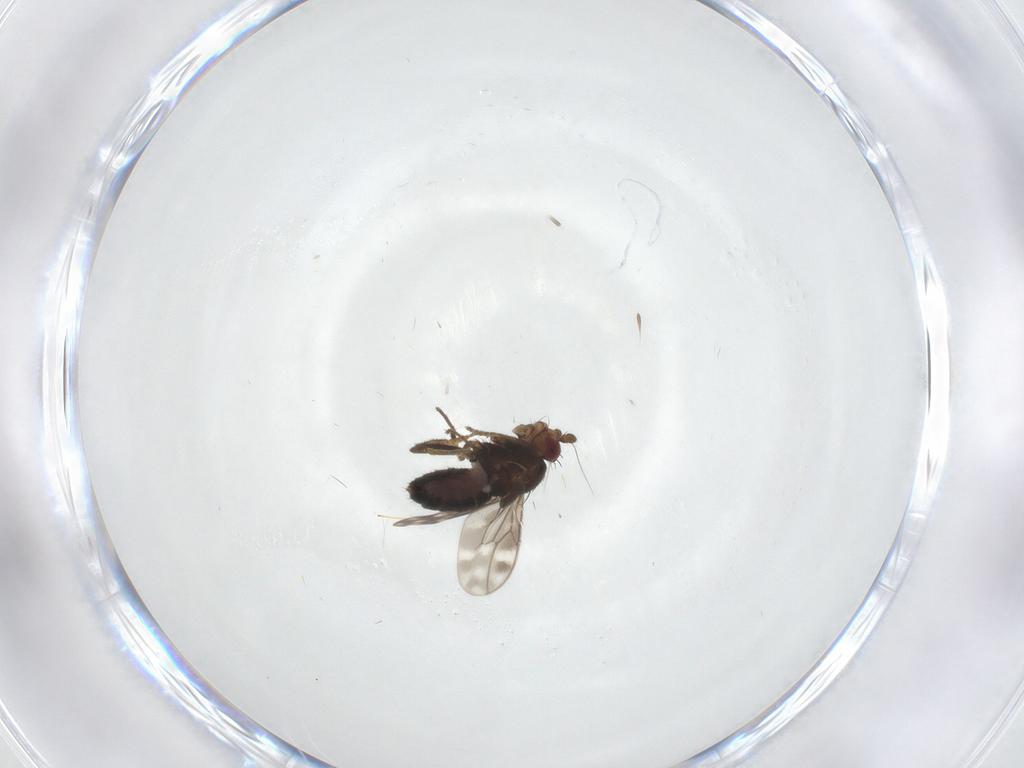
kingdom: Animalia
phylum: Arthropoda
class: Insecta
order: Diptera
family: Sphaeroceridae
